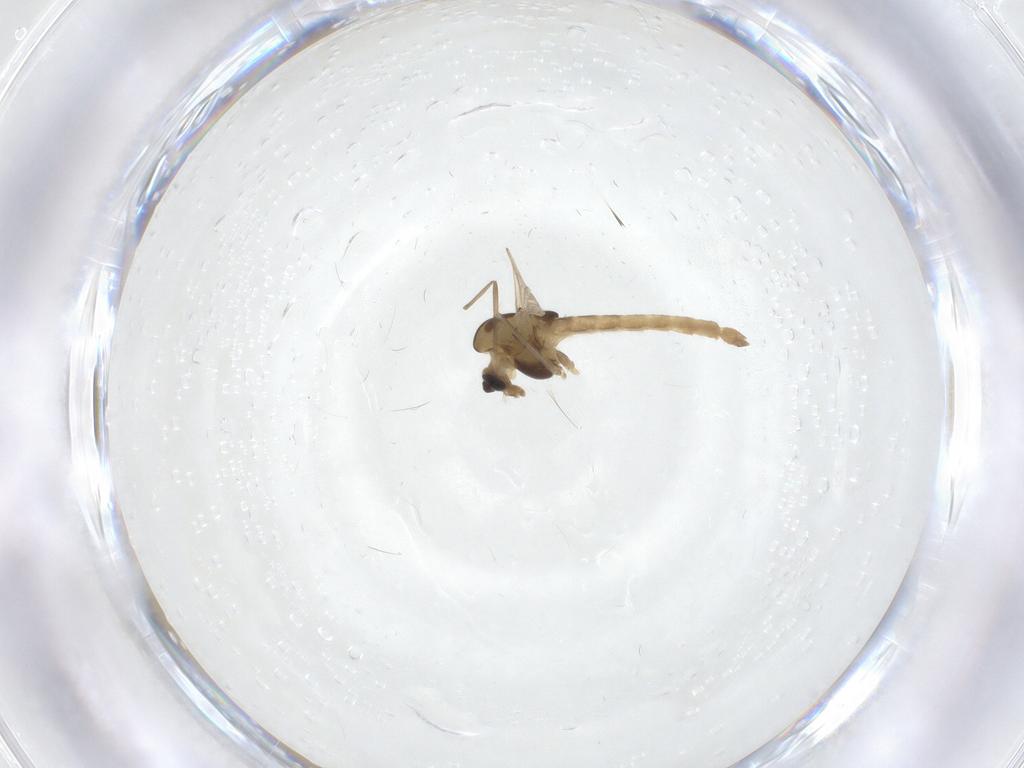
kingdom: Animalia
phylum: Arthropoda
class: Insecta
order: Diptera
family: Chironomidae
